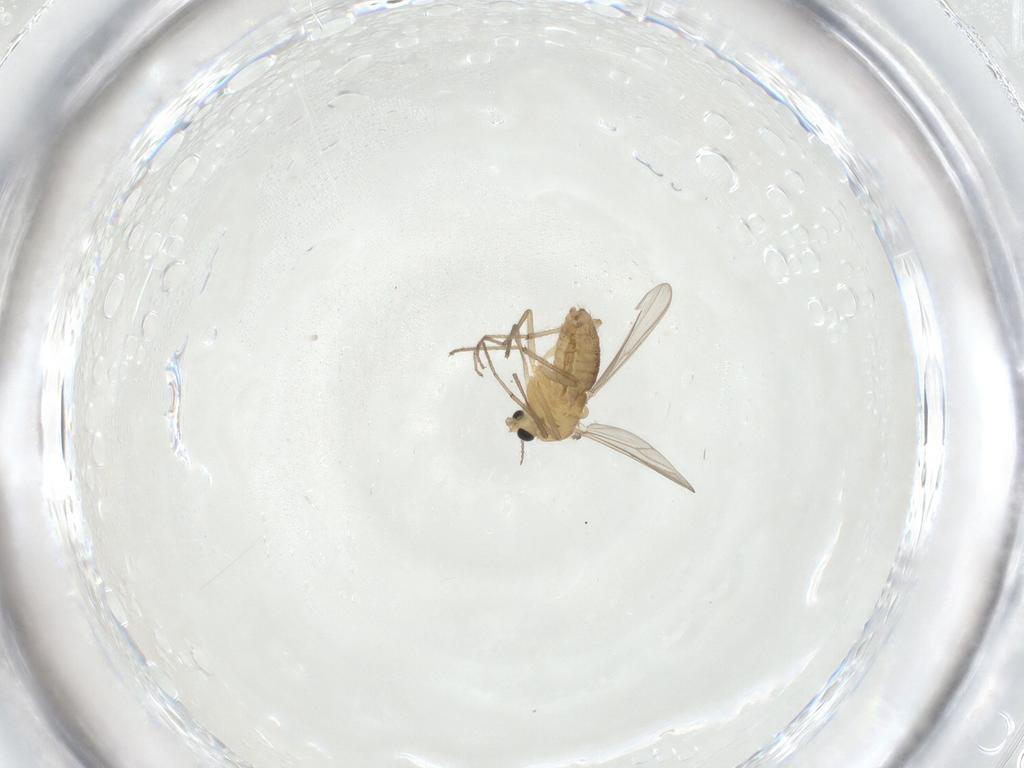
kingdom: Animalia
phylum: Arthropoda
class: Insecta
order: Diptera
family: Chironomidae
